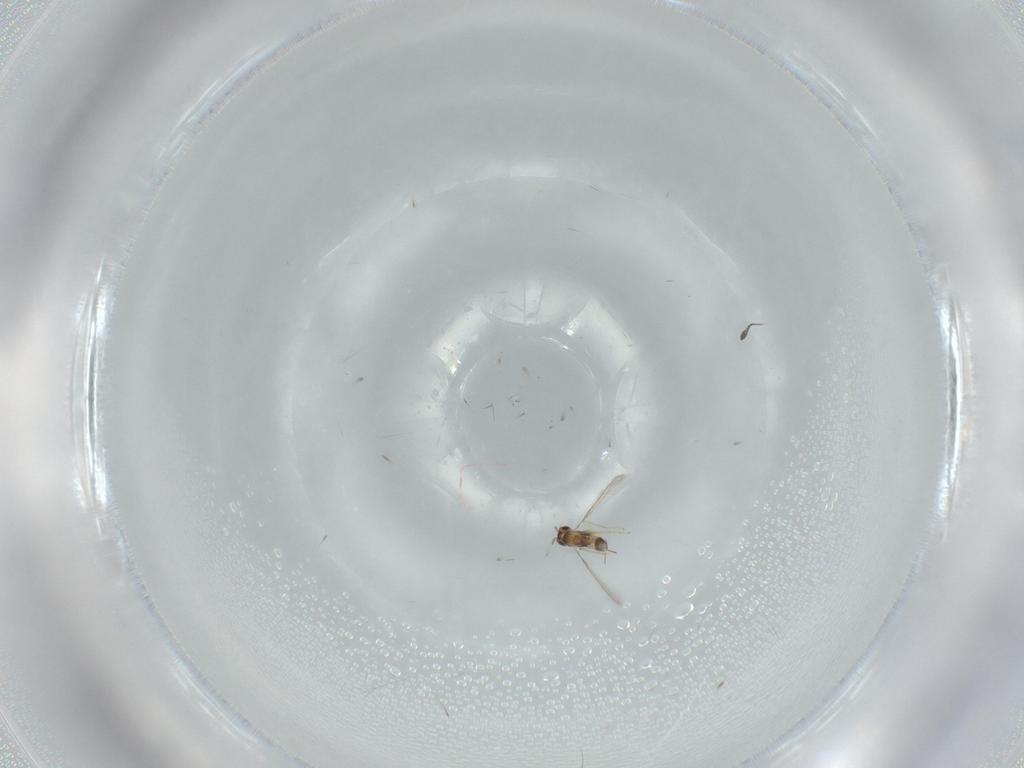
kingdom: Animalia
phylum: Arthropoda
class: Insecta
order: Hymenoptera
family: Mymaridae
